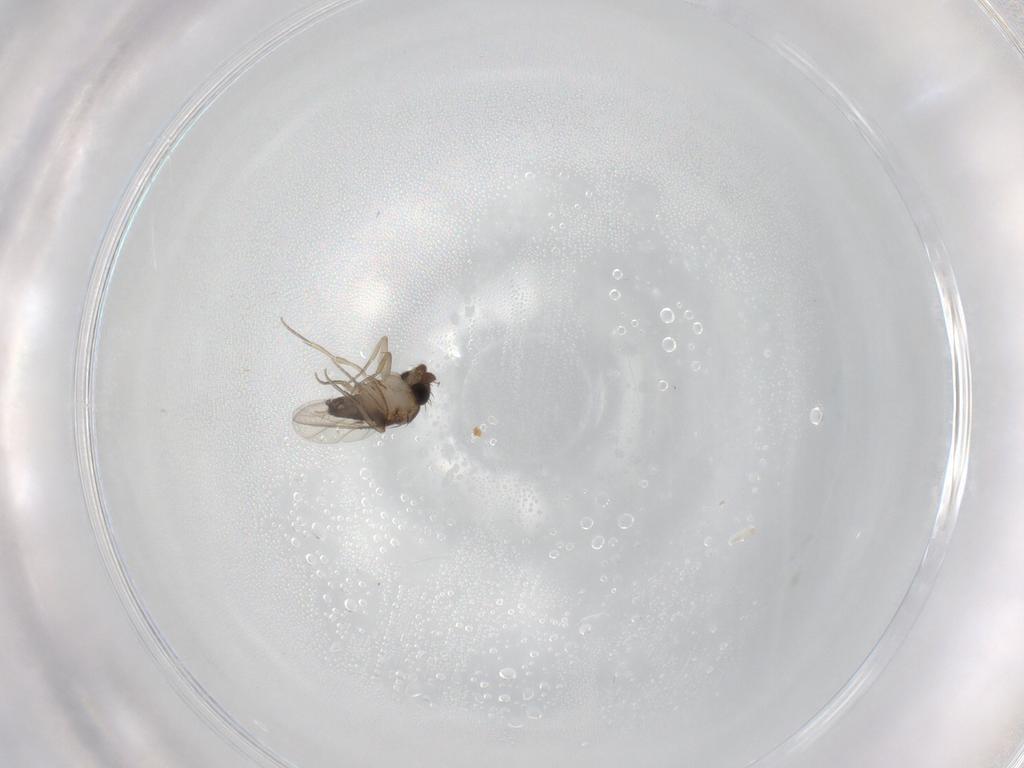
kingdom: Animalia
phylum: Arthropoda
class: Insecta
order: Diptera
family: Phoridae
